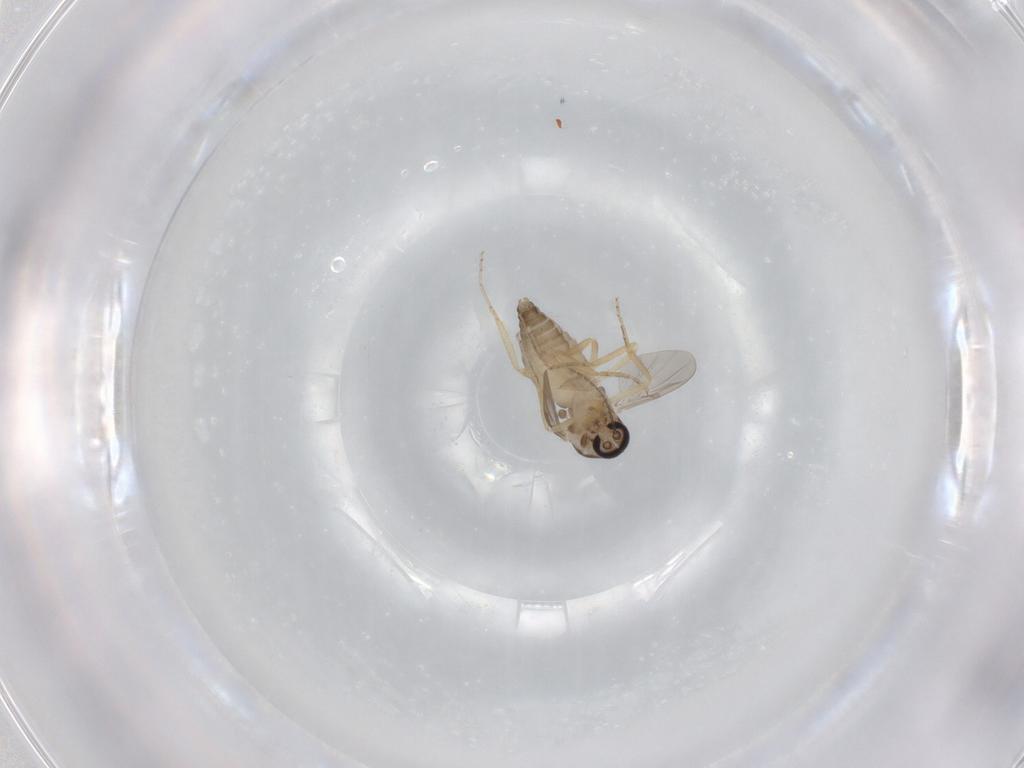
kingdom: Animalia
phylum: Arthropoda
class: Insecta
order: Diptera
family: Ceratopogonidae
